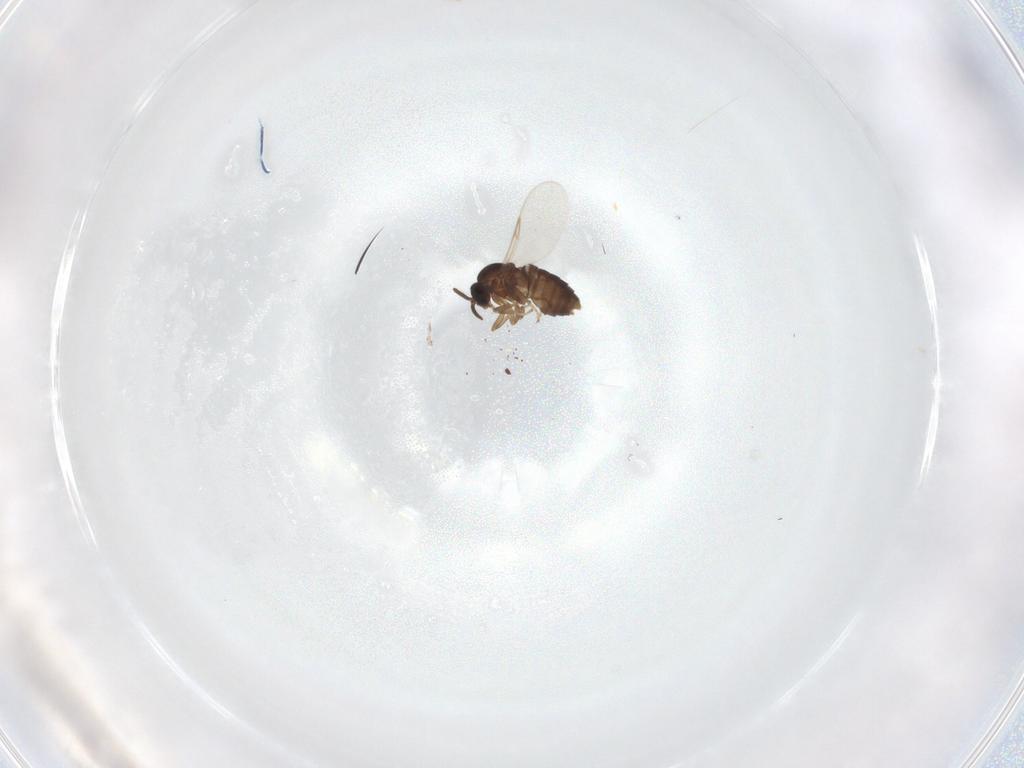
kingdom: Animalia
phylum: Arthropoda
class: Insecta
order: Diptera
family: Scatopsidae
